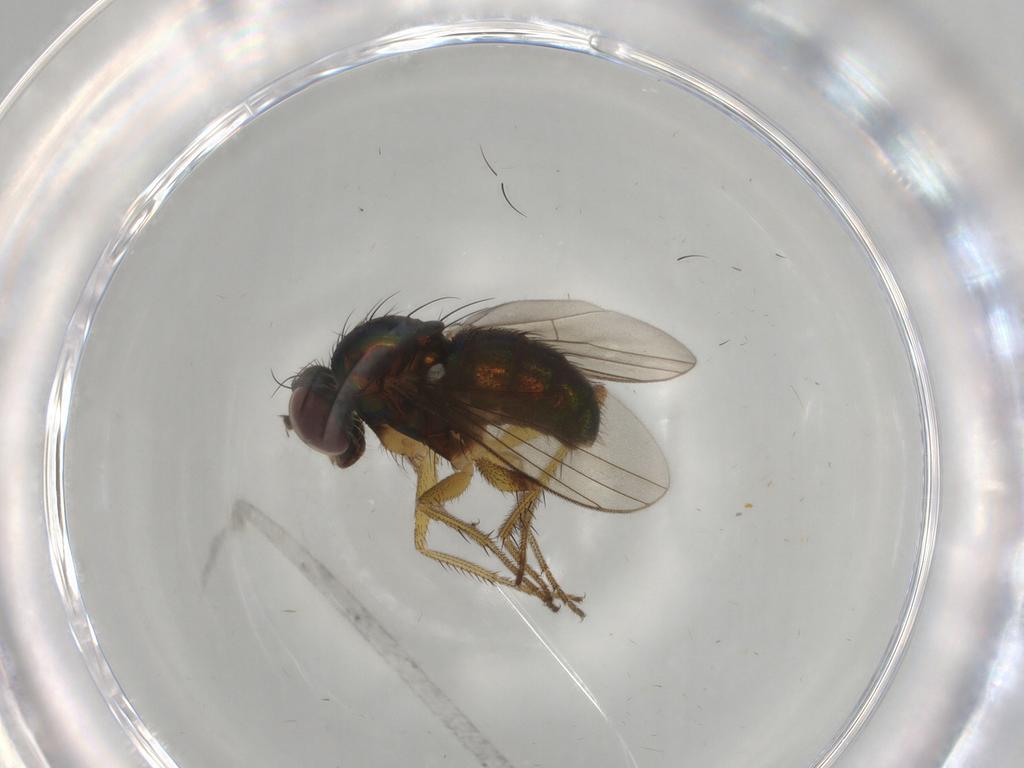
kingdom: Animalia
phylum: Arthropoda
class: Insecta
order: Diptera
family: Dolichopodidae
